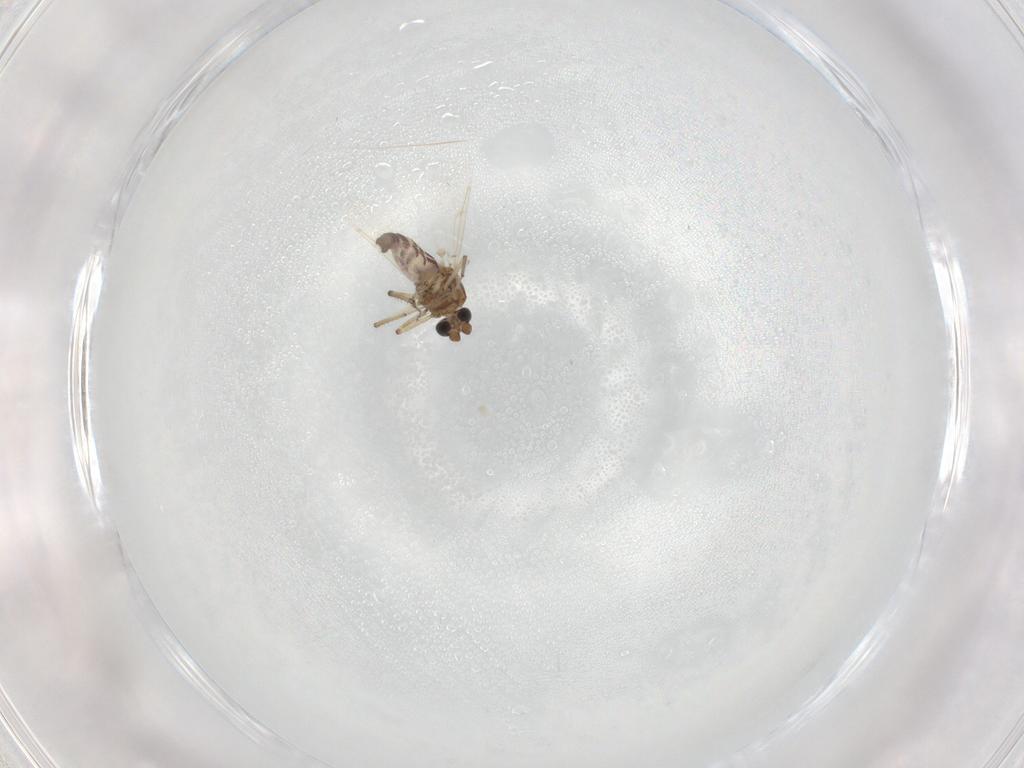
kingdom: Animalia
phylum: Arthropoda
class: Insecta
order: Diptera
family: Ceratopogonidae
